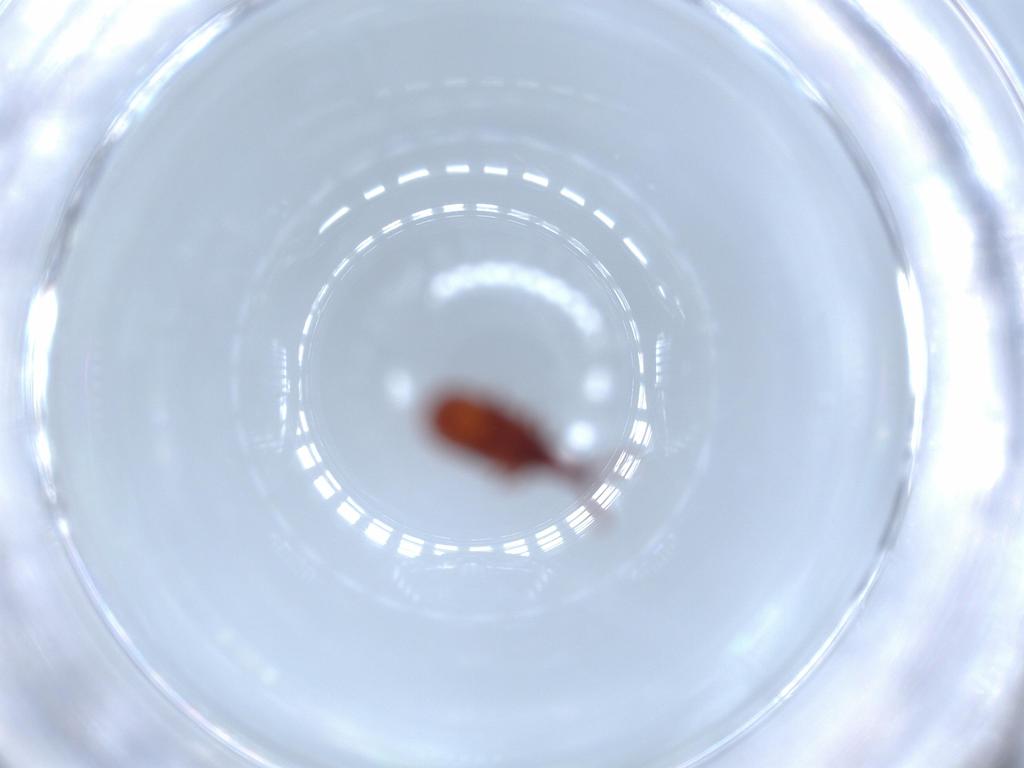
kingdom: Animalia
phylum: Arthropoda
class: Insecta
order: Coleoptera
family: Staphylinidae
